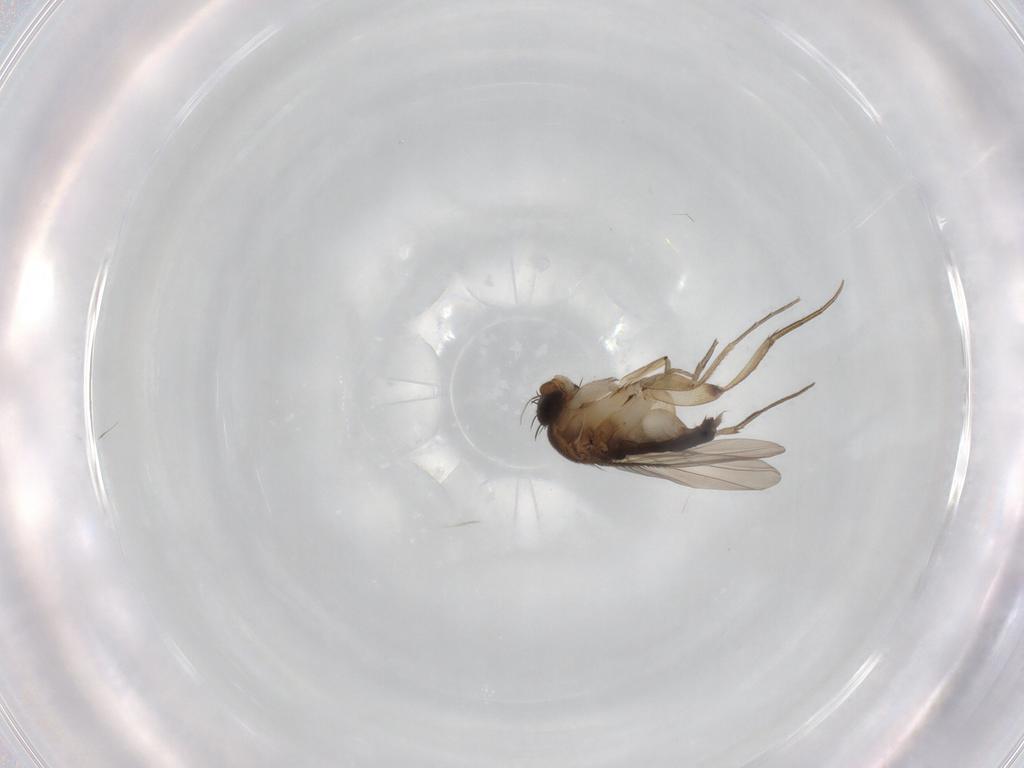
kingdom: Animalia
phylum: Arthropoda
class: Insecta
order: Diptera
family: Phoridae
